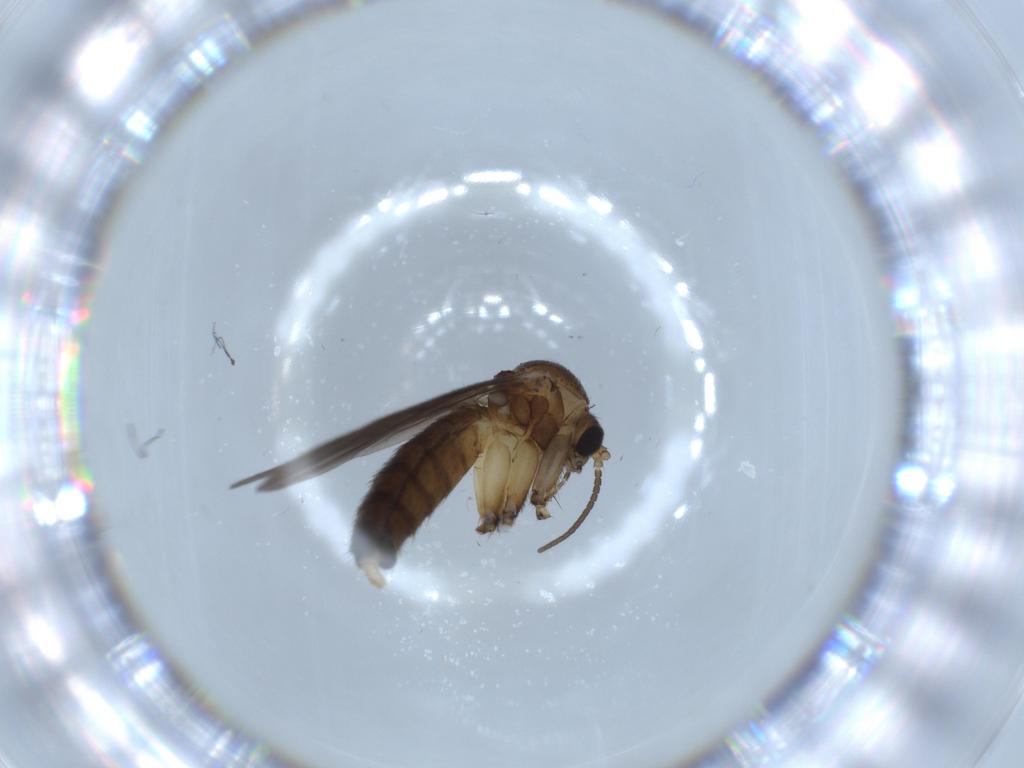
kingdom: Animalia
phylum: Arthropoda
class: Insecta
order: Diptera
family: Mycetophilidae
